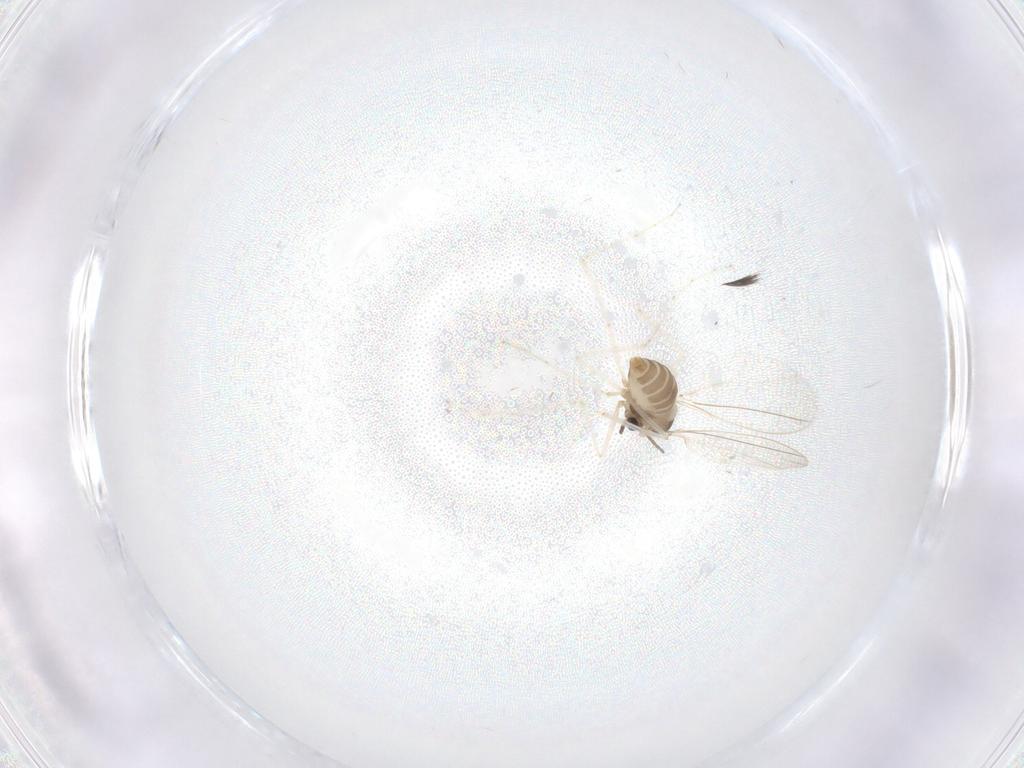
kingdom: Animalia
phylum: Arthropoda
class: Insecta
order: Diptera
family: Cecidomyiidae
